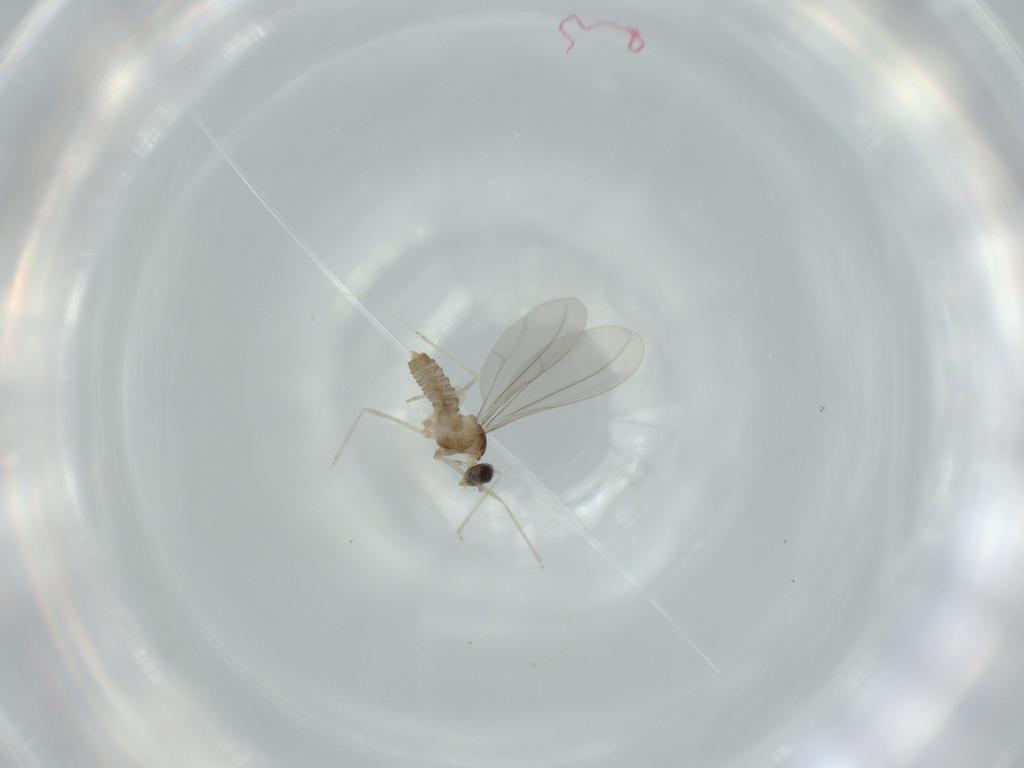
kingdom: Animalia
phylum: Arthropoda
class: Insecta
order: Diptera
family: Cecidomyiidae
